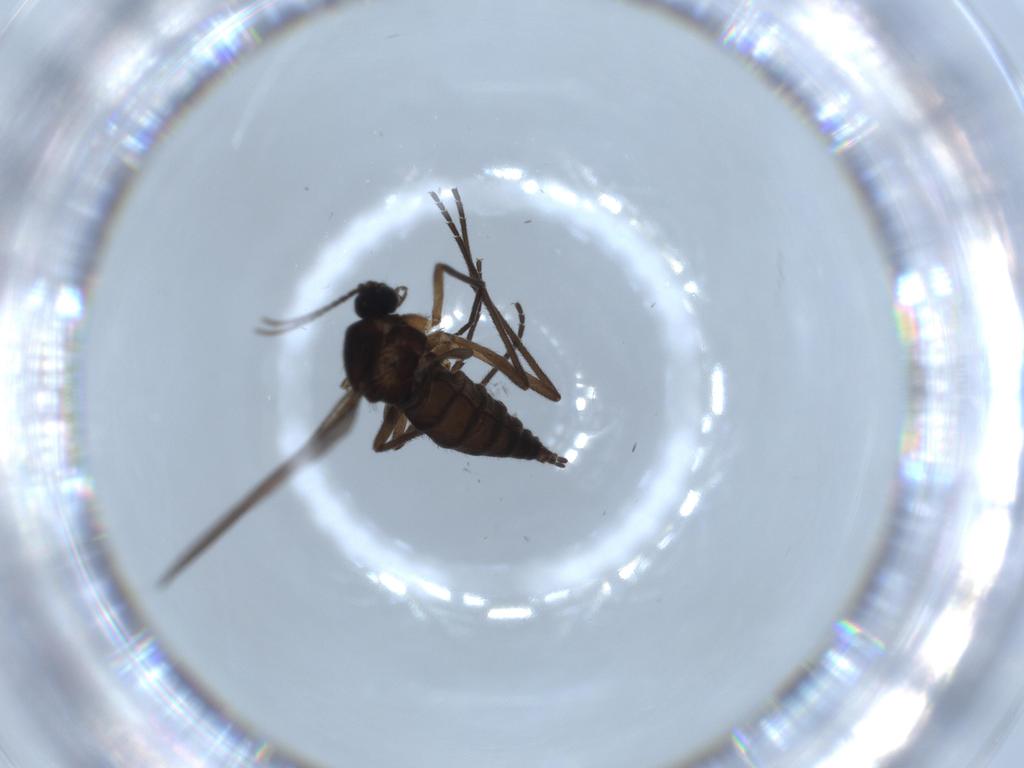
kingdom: Animalia
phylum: Arthropoda
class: Insecta
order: Diptera
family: Sciaridae
